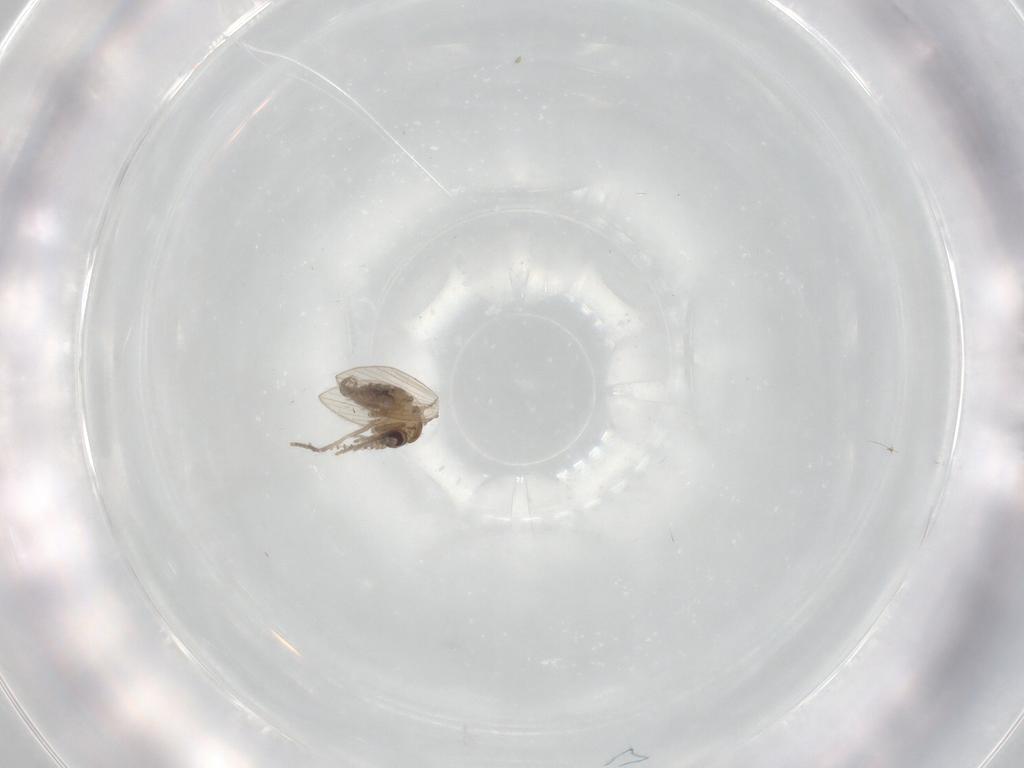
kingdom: Animalia
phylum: Arthropoda
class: Insecta
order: Diptera
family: Psychodidae
